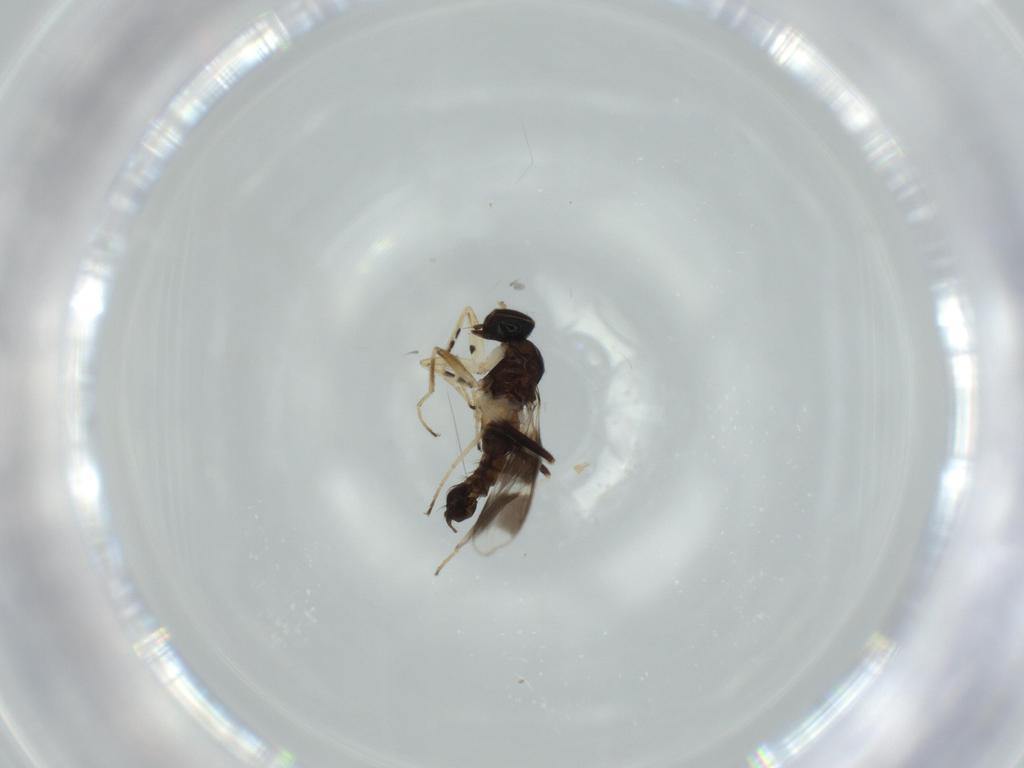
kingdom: Animalia
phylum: Arthropoda
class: Insecta
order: Diptera
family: Hybotidae
